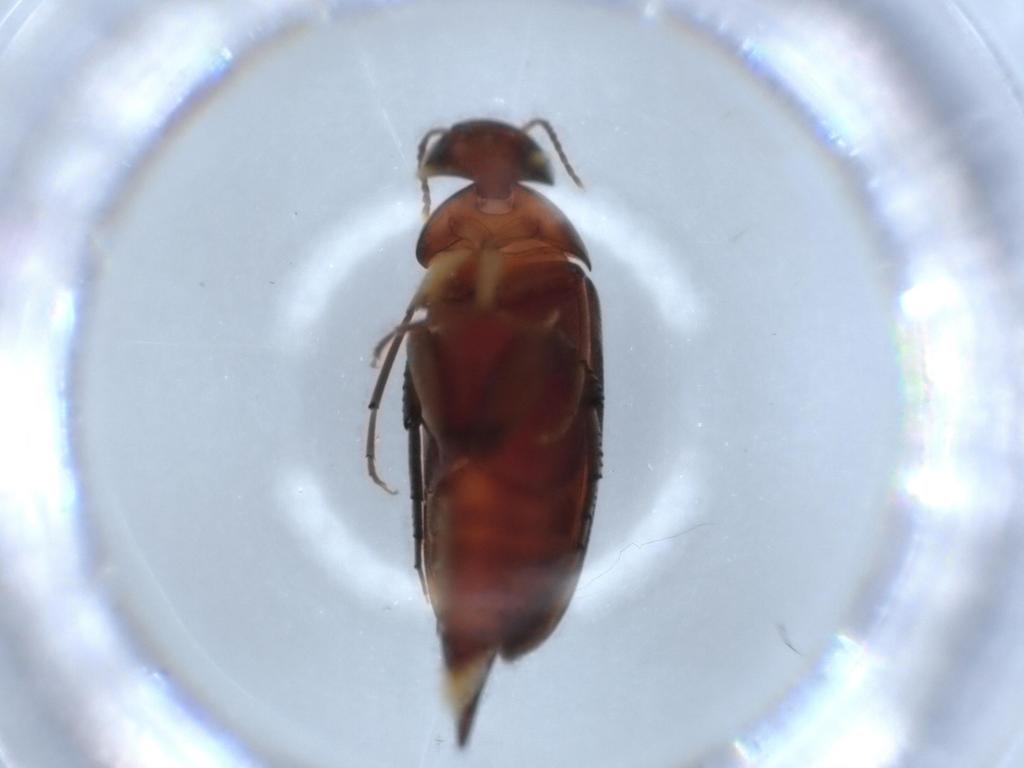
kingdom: Animalia
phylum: Arthropoda
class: Insecta
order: Coleoptera
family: Mordellidae
